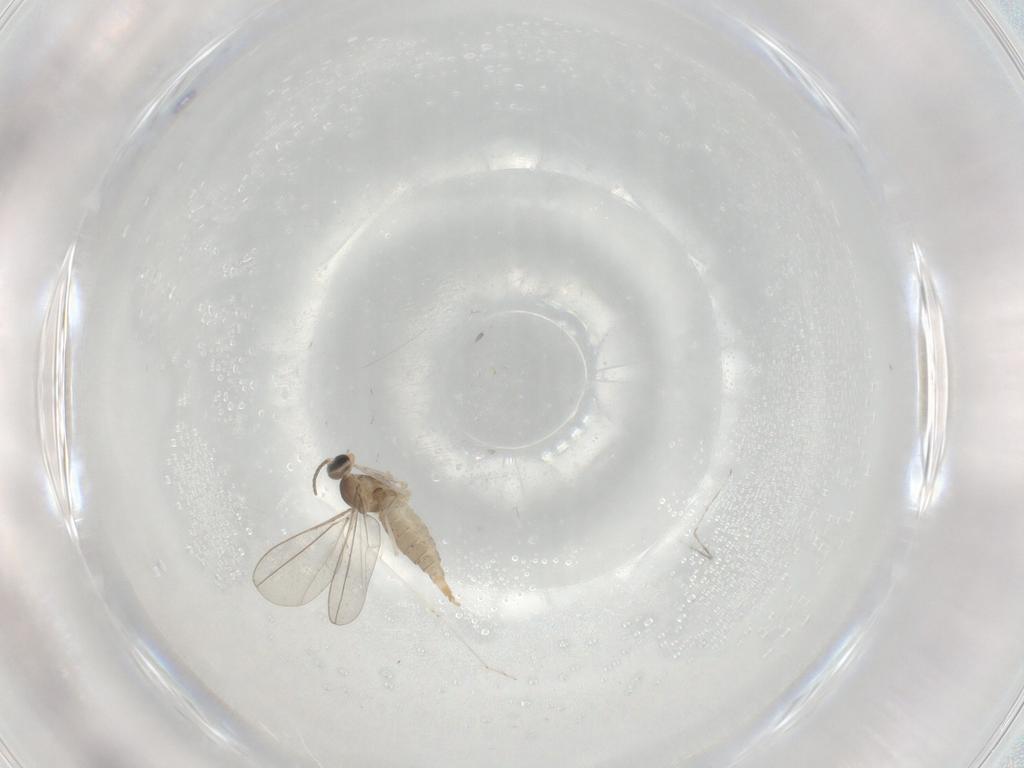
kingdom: Animalia
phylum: Arthropoda
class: Insecta
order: Diptera
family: Cecidomyiidae
